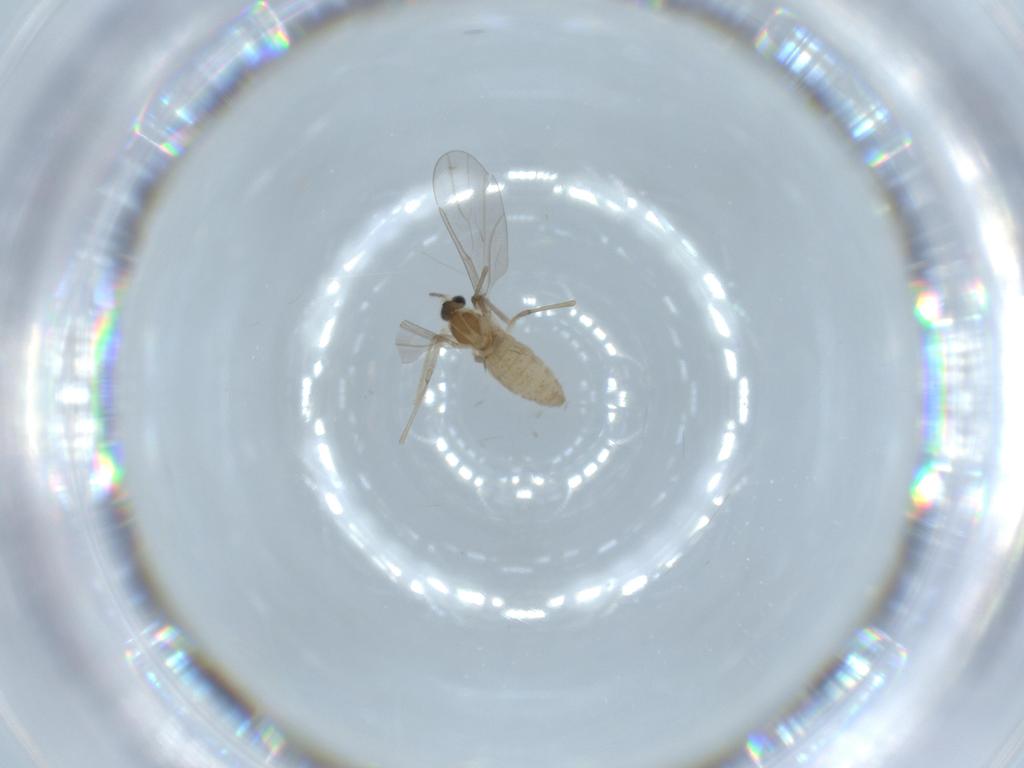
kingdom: Animalia
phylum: Arthropoda
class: Insecta
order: Diptera
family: Cecidomyiidae
